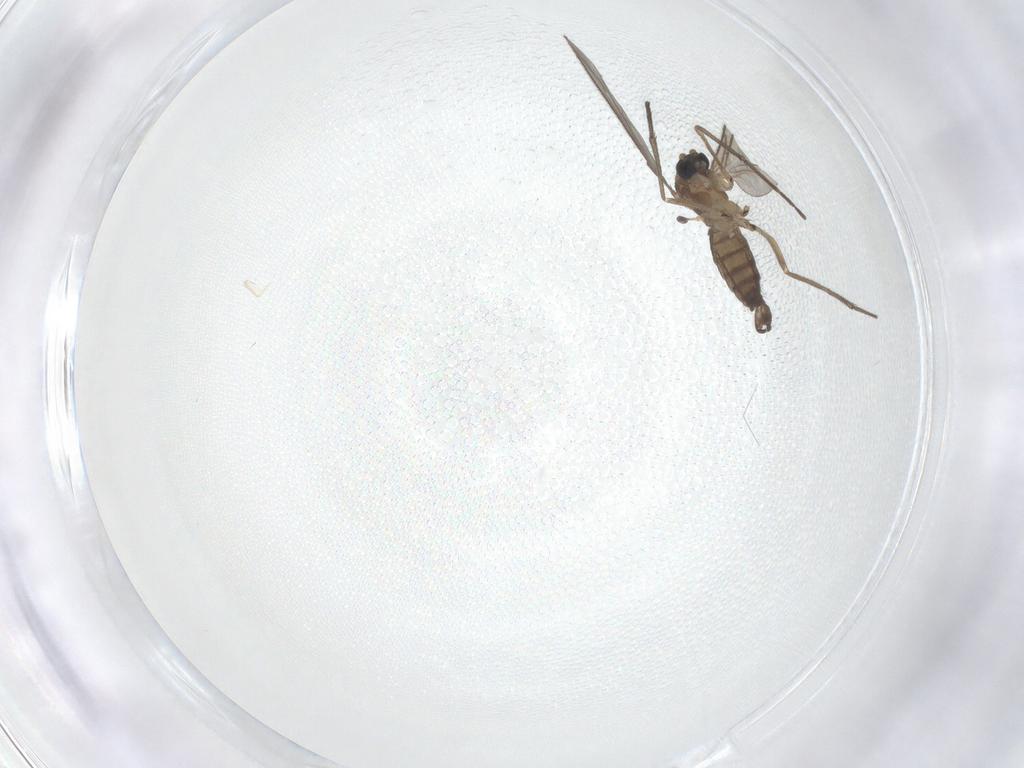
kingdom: Animalia
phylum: Arthropoda
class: Insecta
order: Diptera
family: Sciaridae
